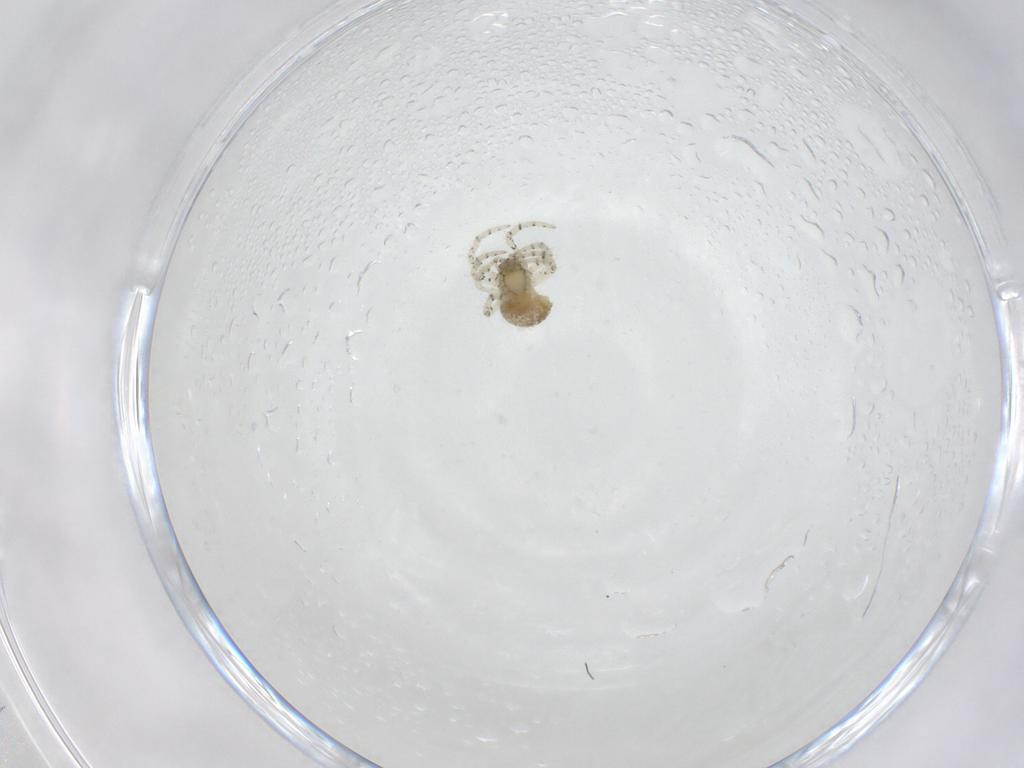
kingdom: Animalia
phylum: Arthropoda
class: Arachnida
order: Araneae
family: Theridiidae
